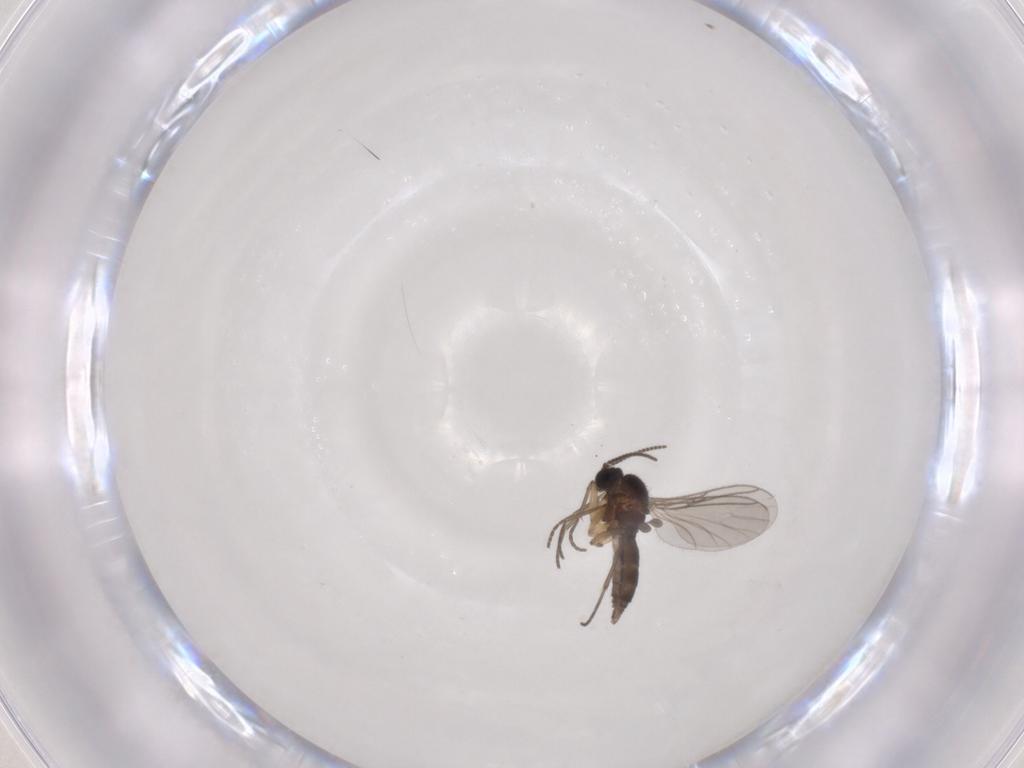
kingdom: Animalia
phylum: Arthropoda
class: Insecta
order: Diptera
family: Sciaridae
